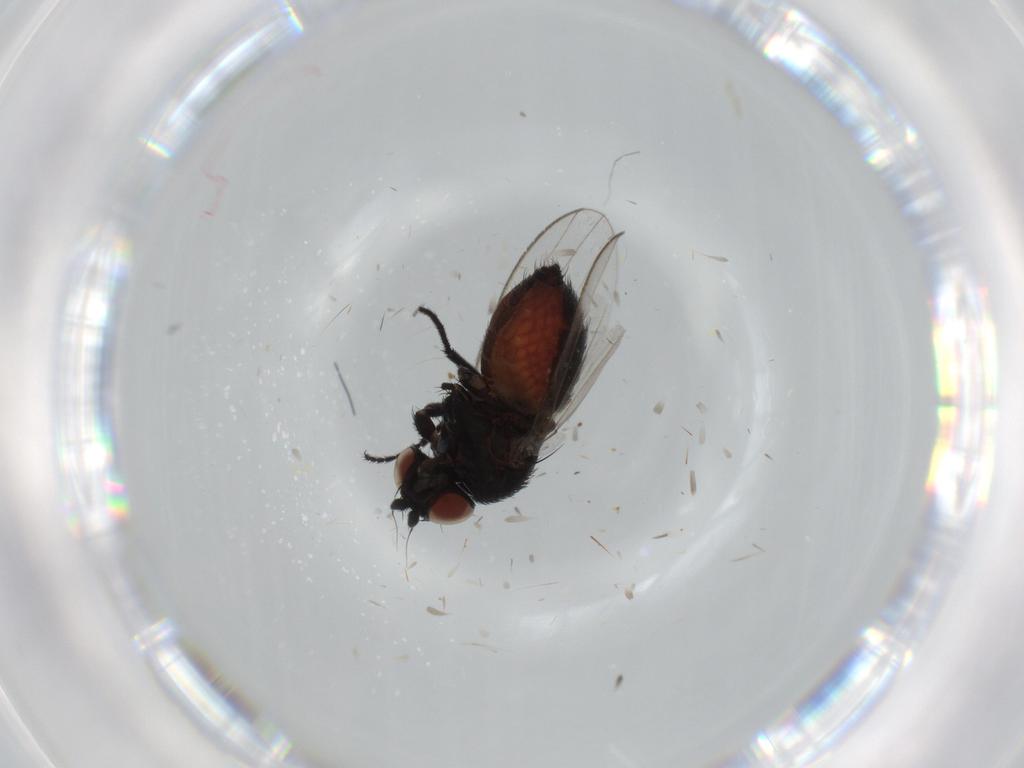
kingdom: Animalia
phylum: Arthropoda
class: Insecta
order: Diptera
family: Milichiidae
